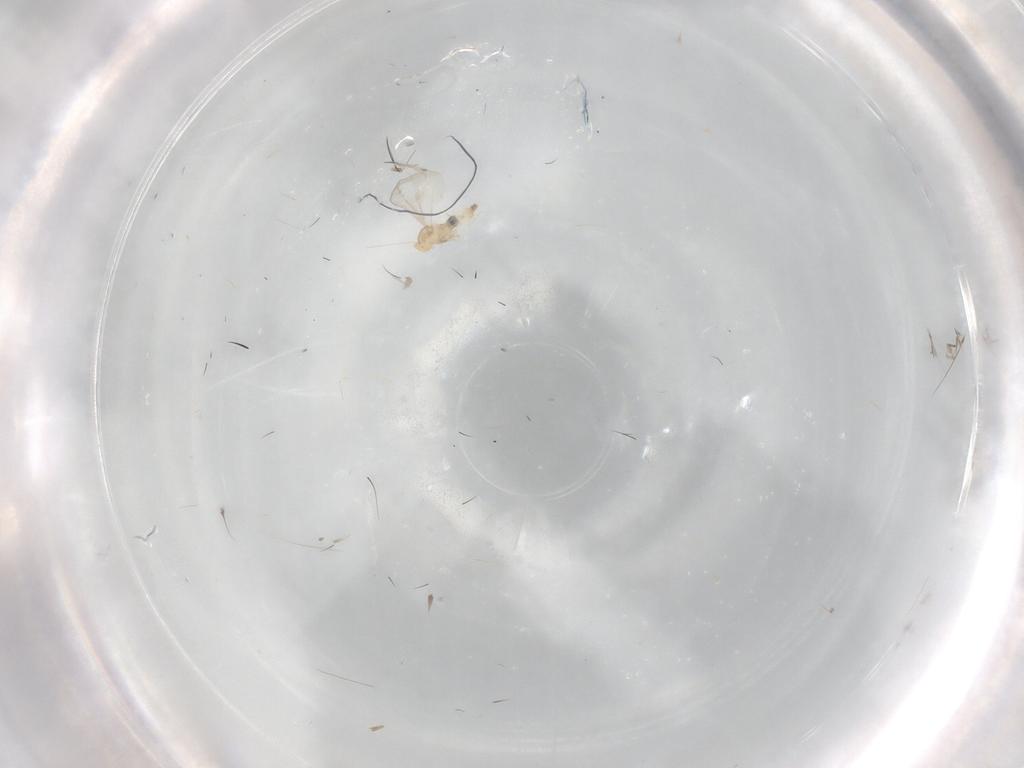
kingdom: Animalia
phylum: Arthropoda
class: Insecta
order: Diptera
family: Cecidomyiidae
